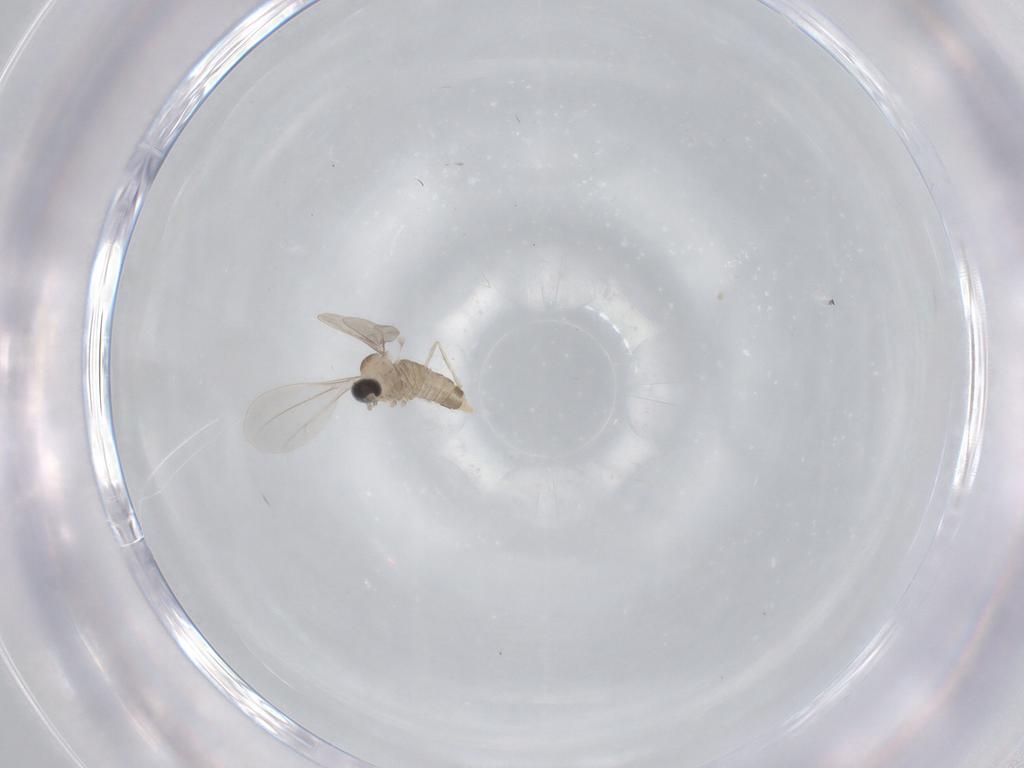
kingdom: Animalia
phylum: Arthropoda
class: Insecta
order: Diptera
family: Cecidomyiidae
